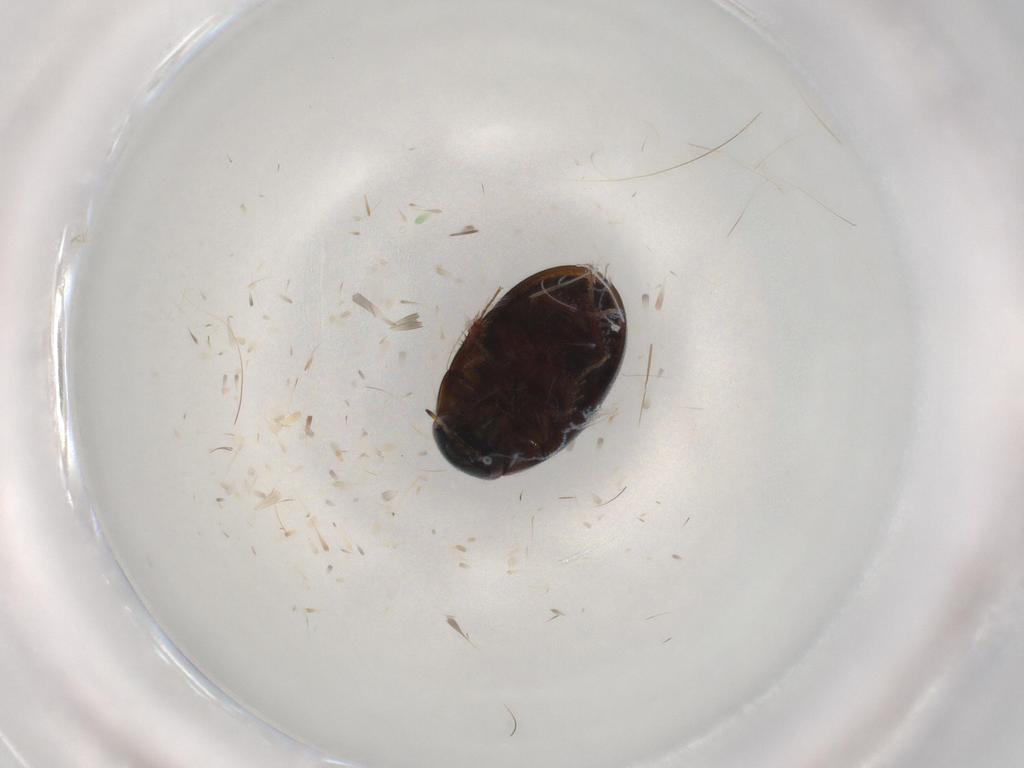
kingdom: Animalia
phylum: Arthropoda
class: Insecta
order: Coleoptera
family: Hydrophilidae
